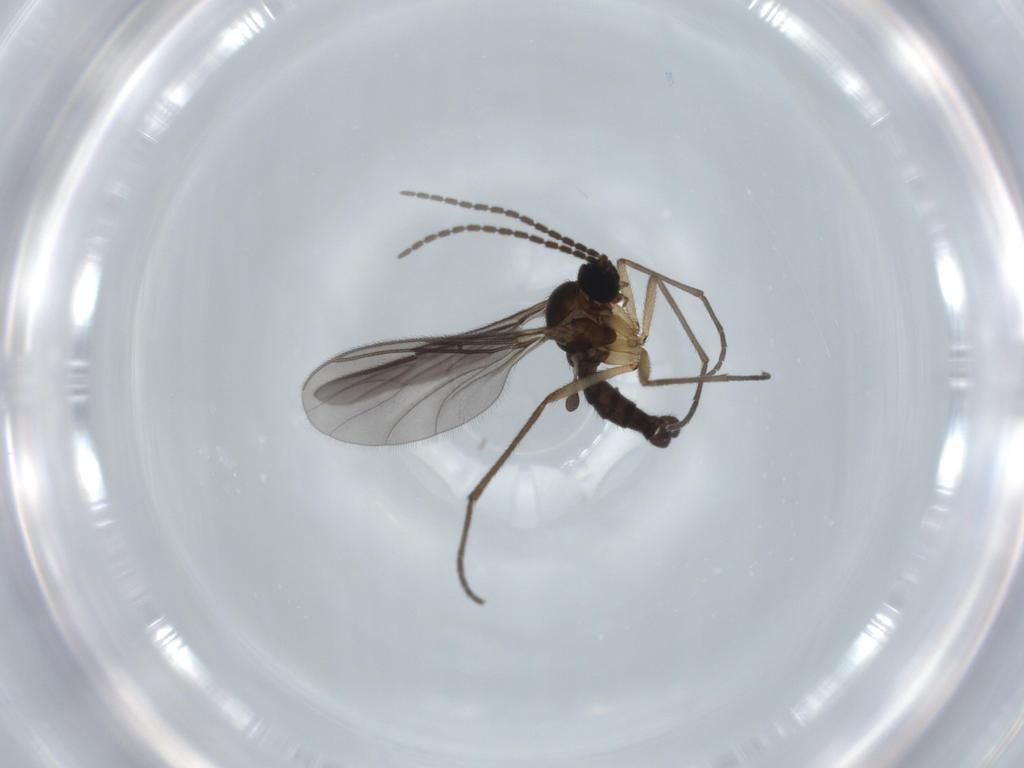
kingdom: Animalia
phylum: Arthropoda
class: Insecta
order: Diptera
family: Sciaridae
